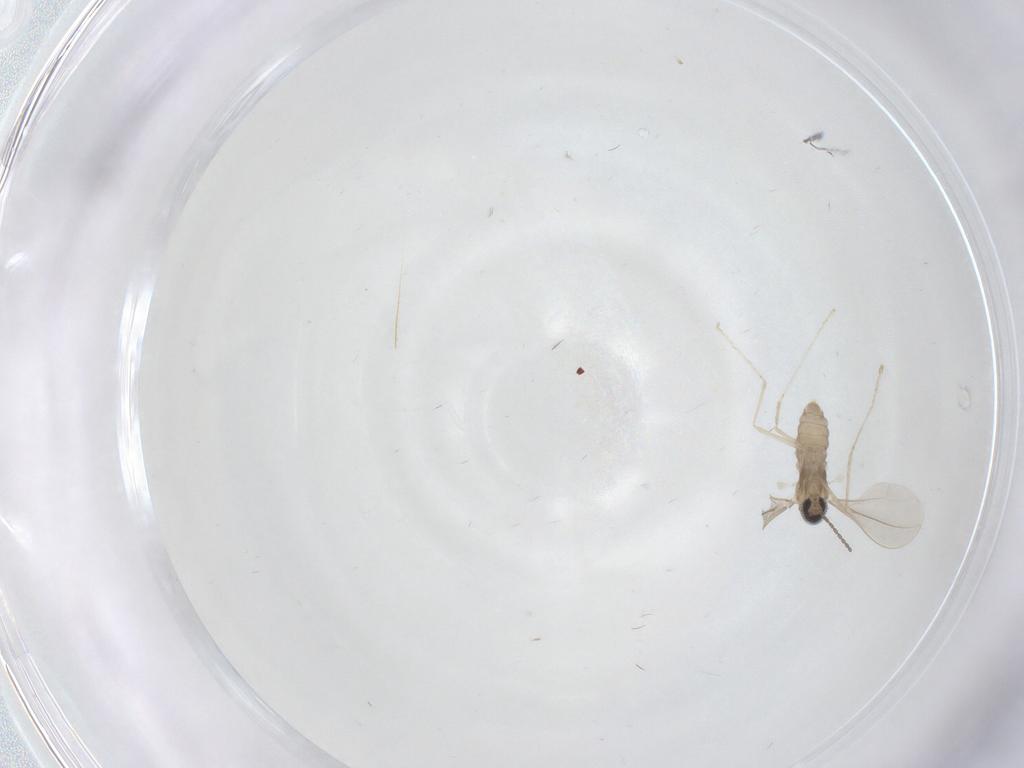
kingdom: Animalia
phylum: Arthropoda
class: Insecta
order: Diptera
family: Cecidomyiidae
